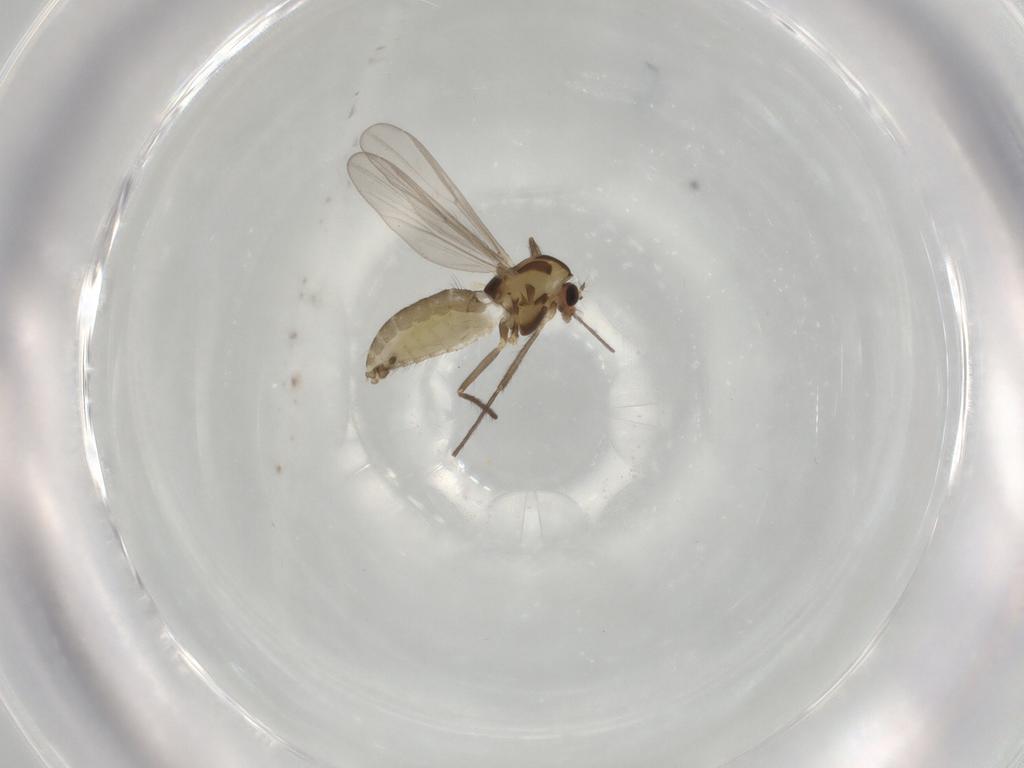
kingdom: Animalia
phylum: Arthropoda
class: Insecta
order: Diptera
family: Chironomidae
